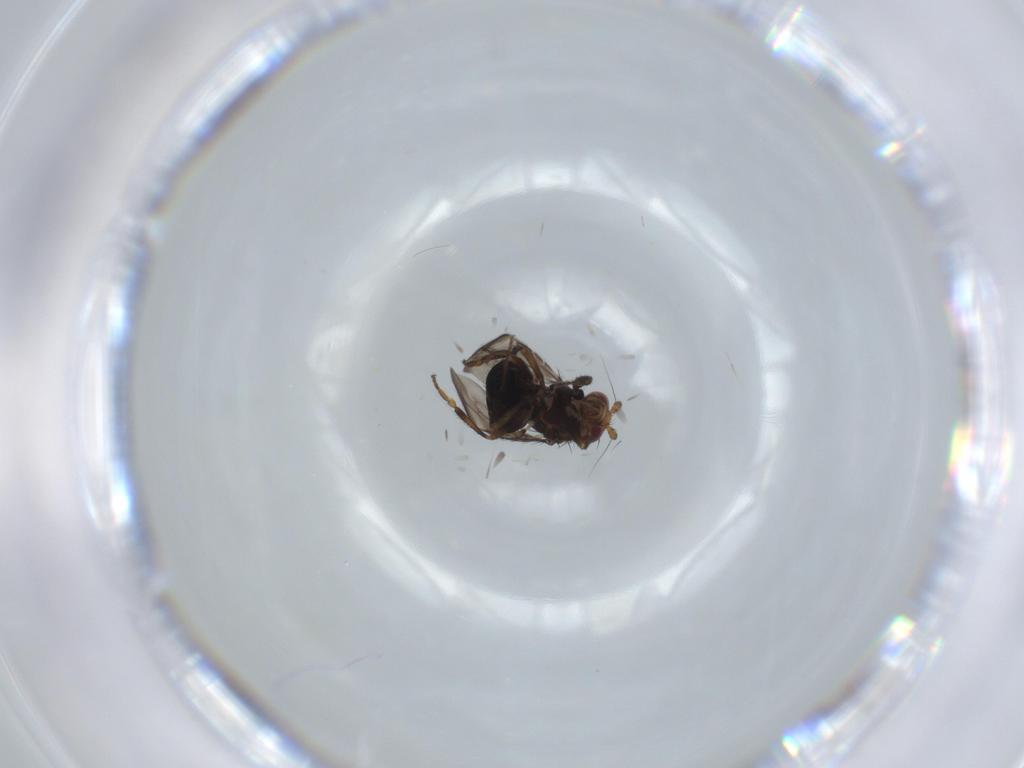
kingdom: Animalia
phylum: Arthropoda
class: Insecta
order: Diptera
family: Sphaeroceridae
